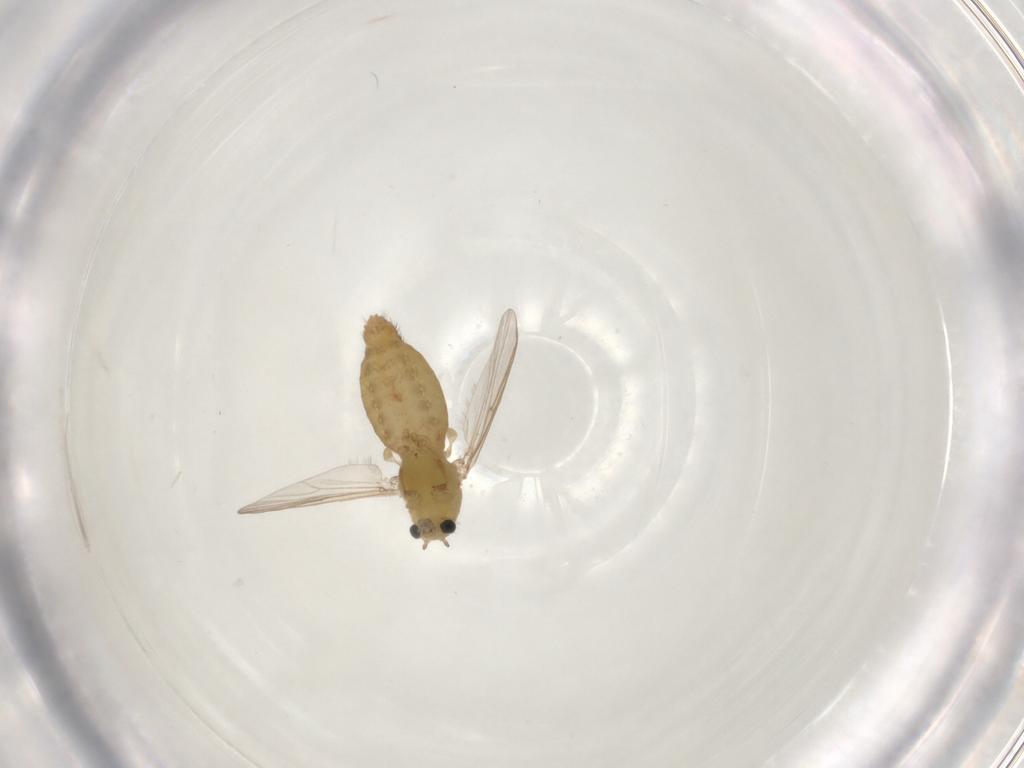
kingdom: Animalia
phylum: Arthropoda
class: Insecta
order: Diptera
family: Chironomidae
